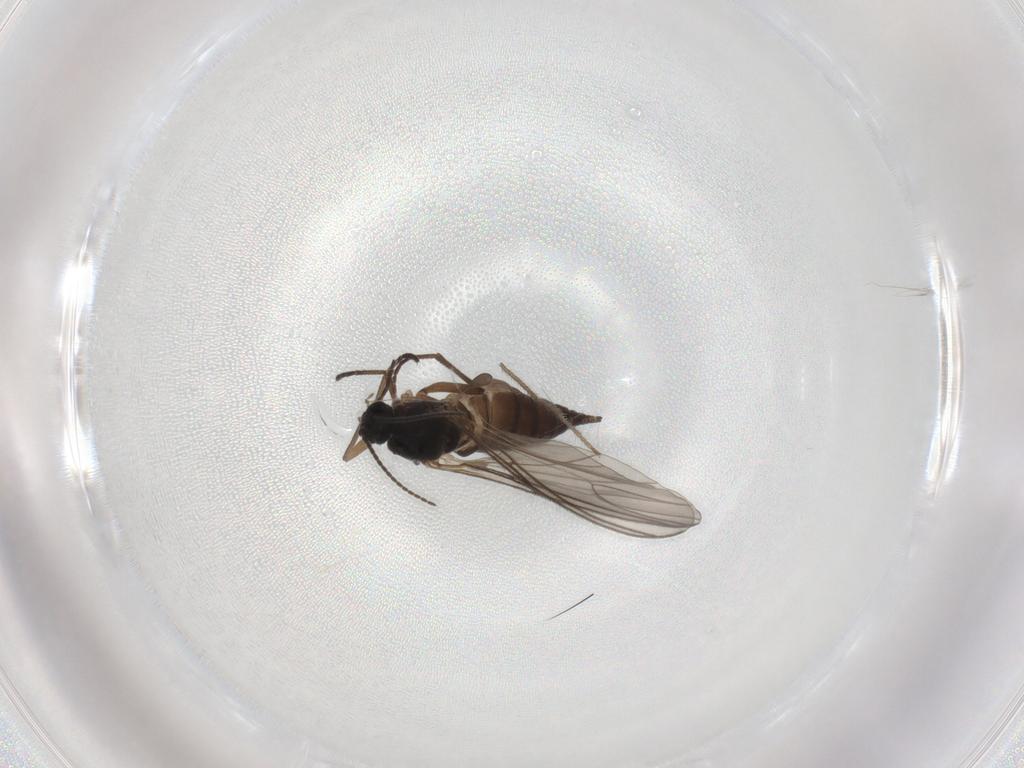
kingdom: Animalia
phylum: Arthropoda
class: Insecta
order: Diptera
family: Sciaridae
